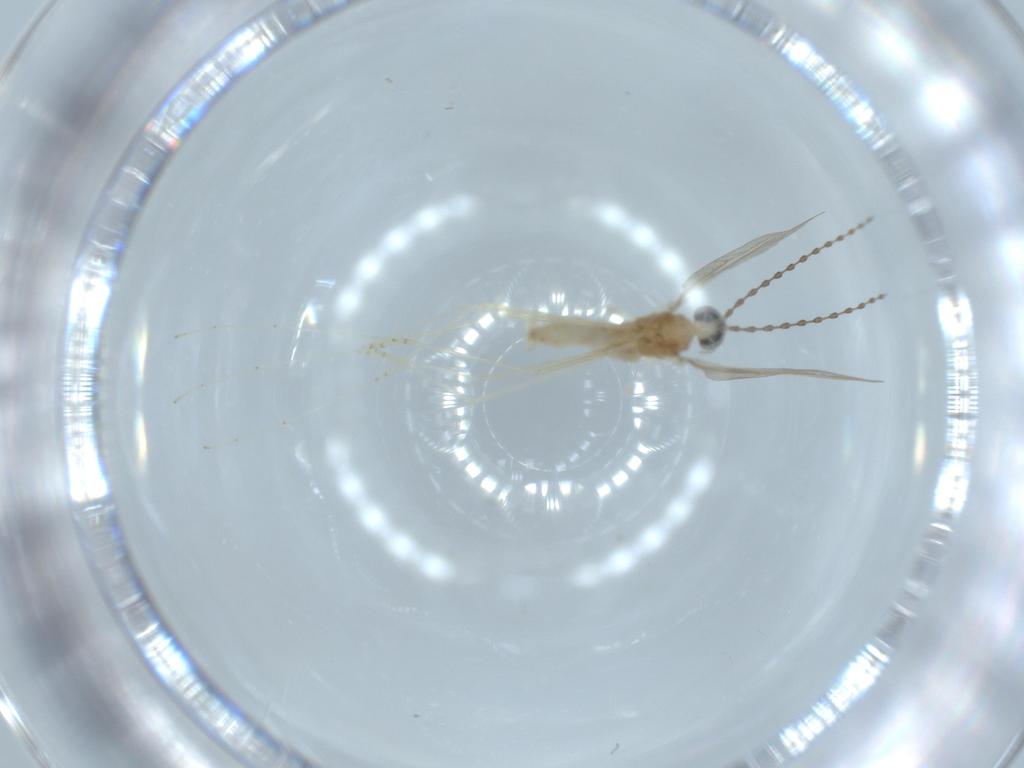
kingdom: Animalia
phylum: Arthropoda
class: Insecta
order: Diptera
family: Cecidomyiidae
